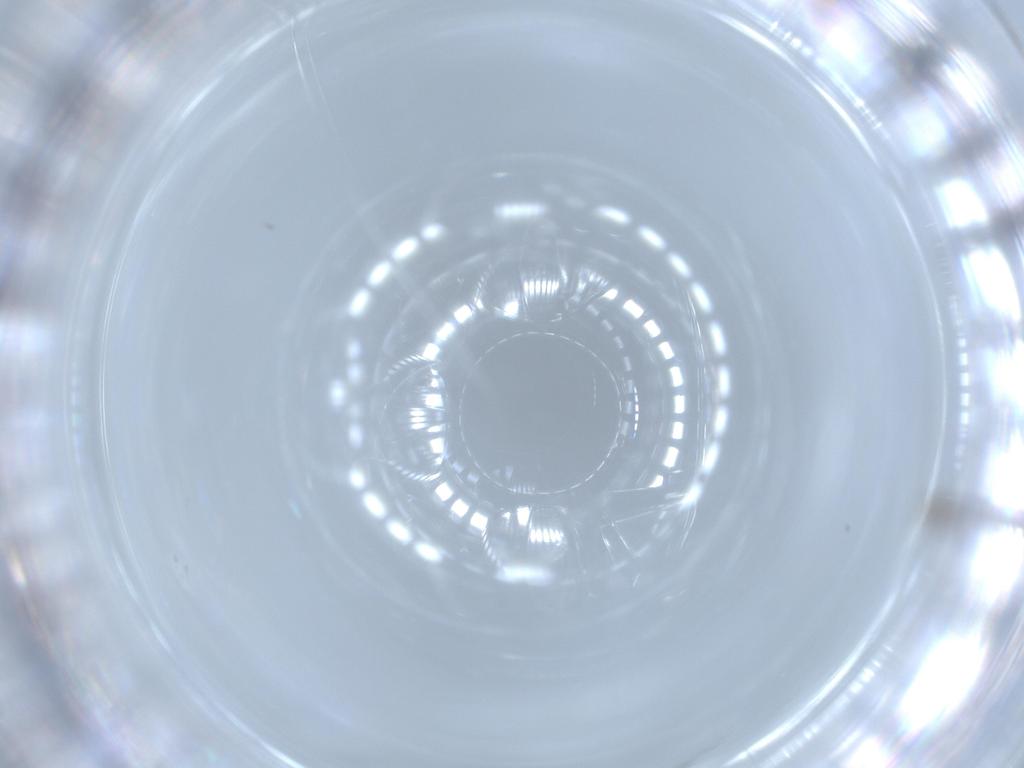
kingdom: Animalia
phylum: Arthropoda
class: Insecta
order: Hymenoptera
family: Aphelinidae
